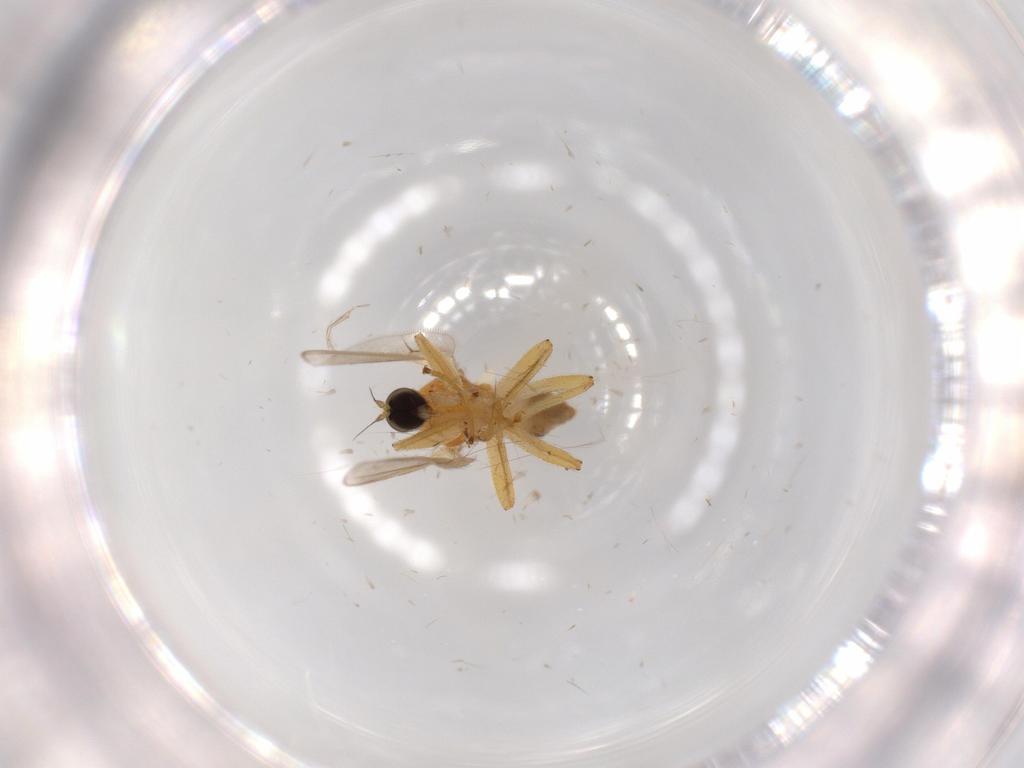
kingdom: Animalia
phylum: Arthropoda
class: Insecta
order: Diptera
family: Hybotidae
